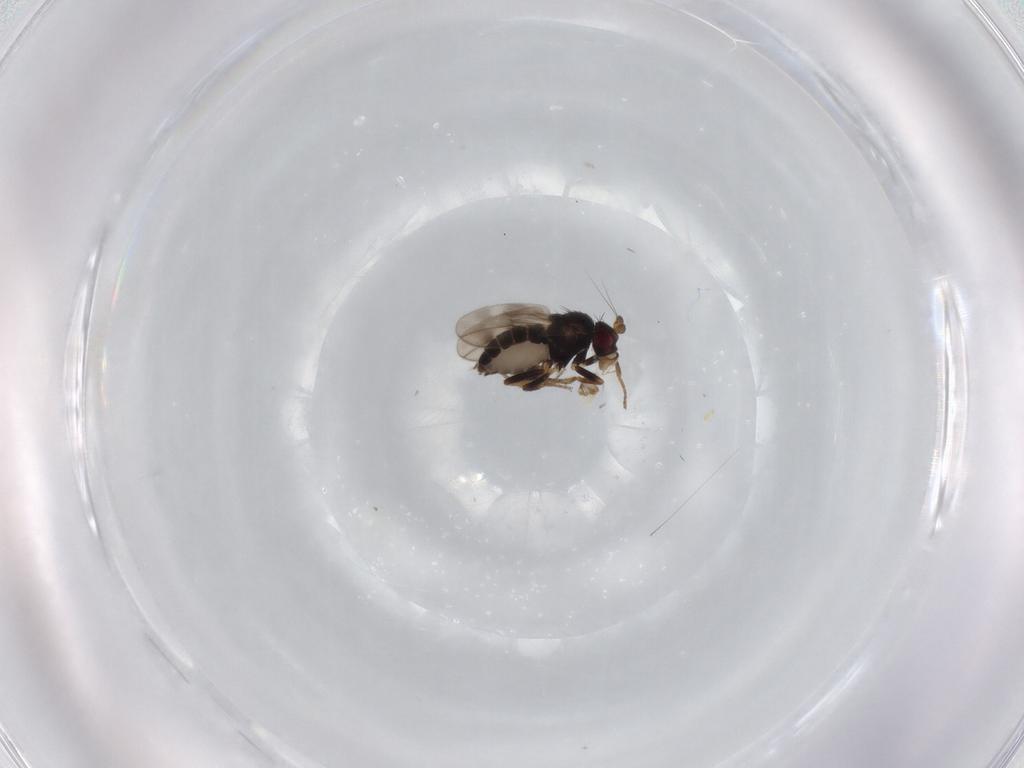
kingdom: Animalia
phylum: Arthropoda
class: Insecta
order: Diptera
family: Sphaeroceridae
